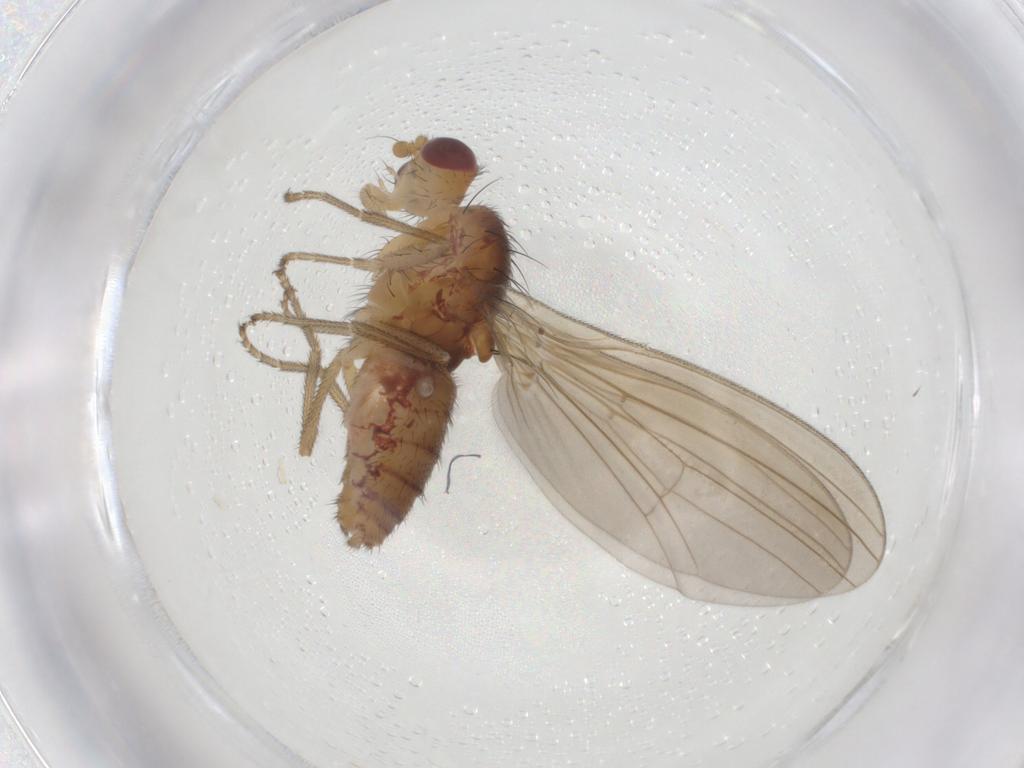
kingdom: Animalia
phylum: Arthropoda
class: Insecta
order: Diptera
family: Natalimyzidae
